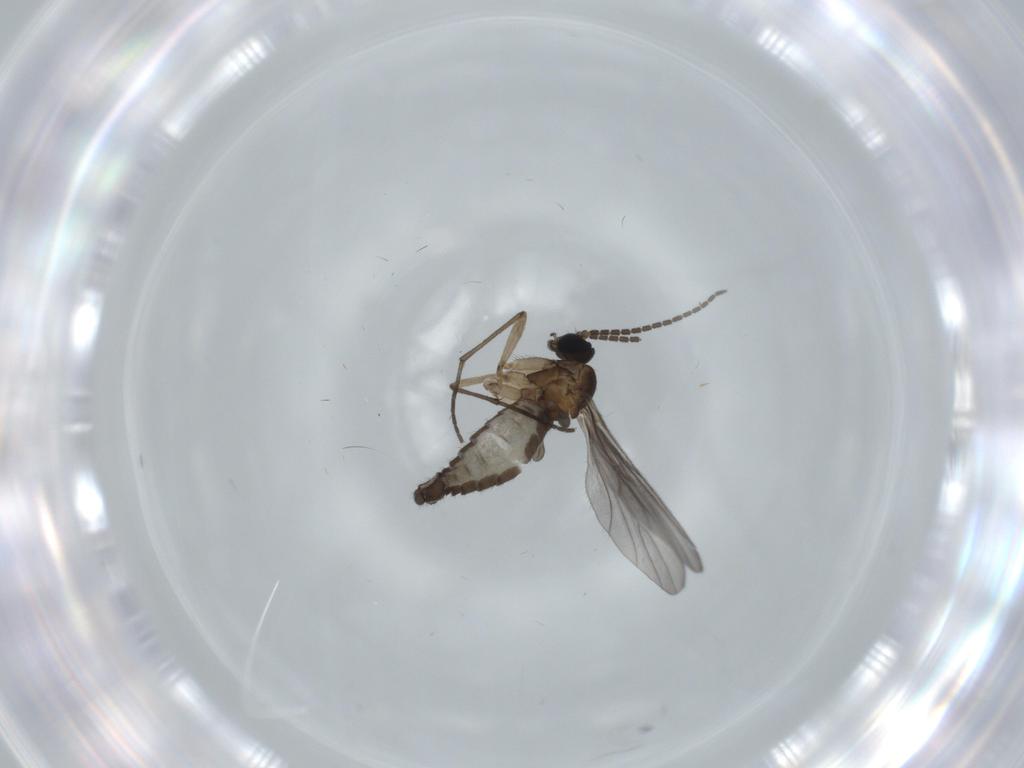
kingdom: Animalia
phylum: Arthropoda
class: Insecta
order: Diptera
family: Sciaridae
